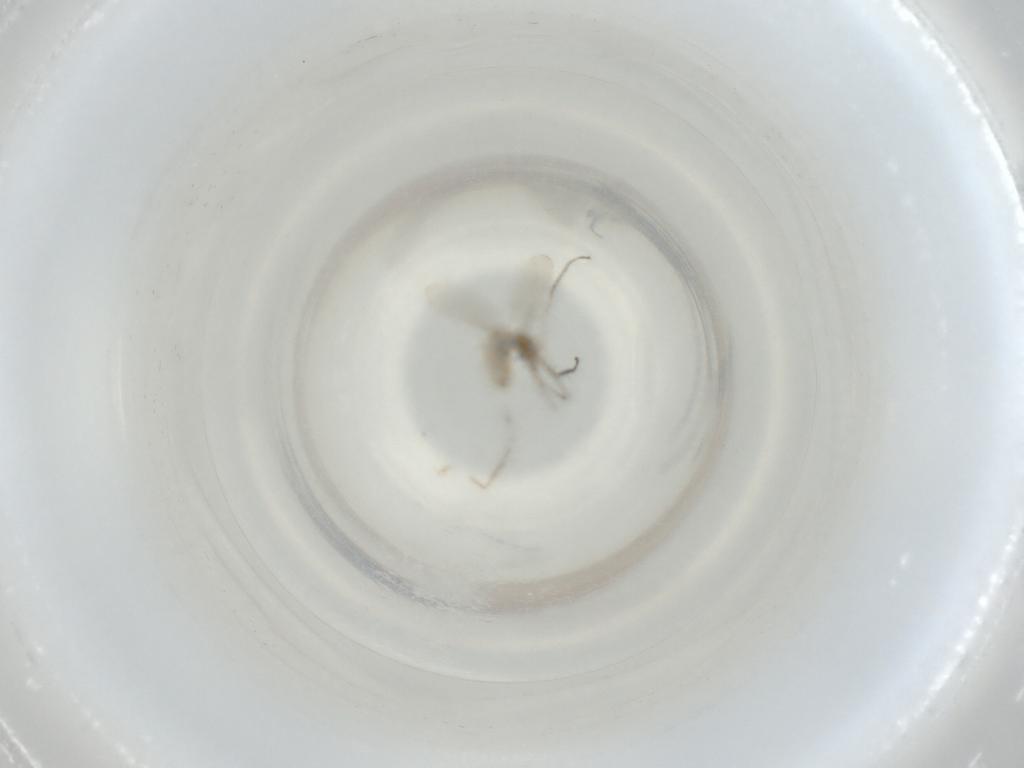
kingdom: Animalia
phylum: Arthropoda
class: Insecta
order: Diptera
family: Cecidomyiidae
